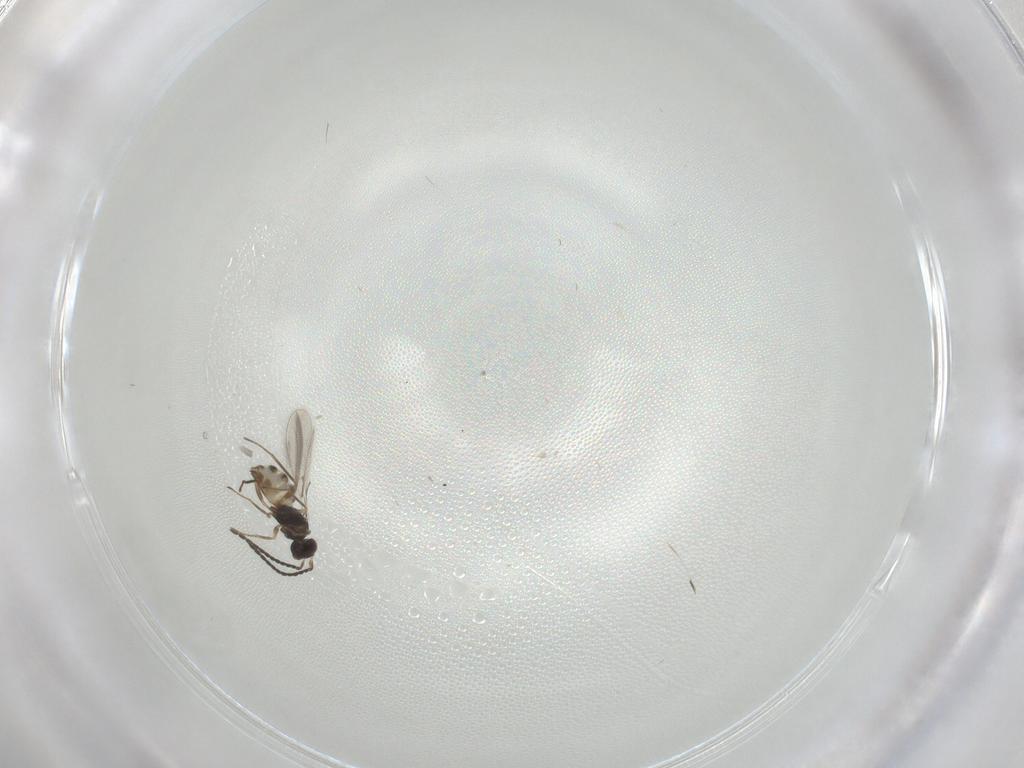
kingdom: Animalia
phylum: Arthropoda
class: Insecta
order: Hymenoptera
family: Mymaridae
